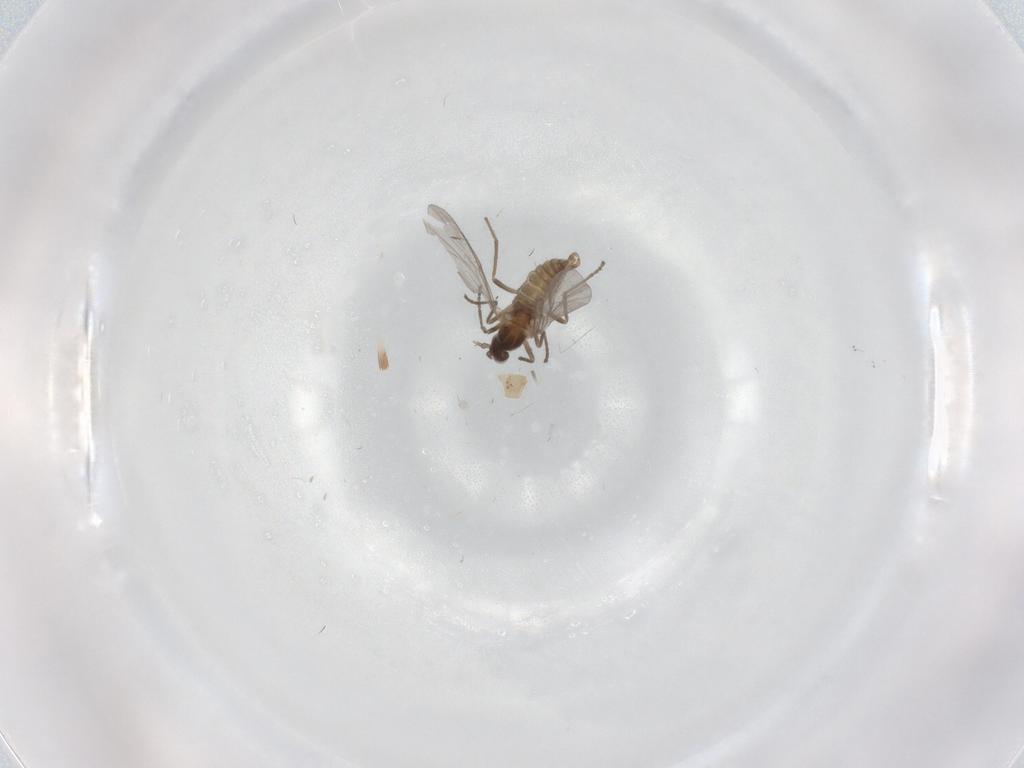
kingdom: Animalia
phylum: Arthropoda
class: Insecta
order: Diptera
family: Cecidomyiidae
